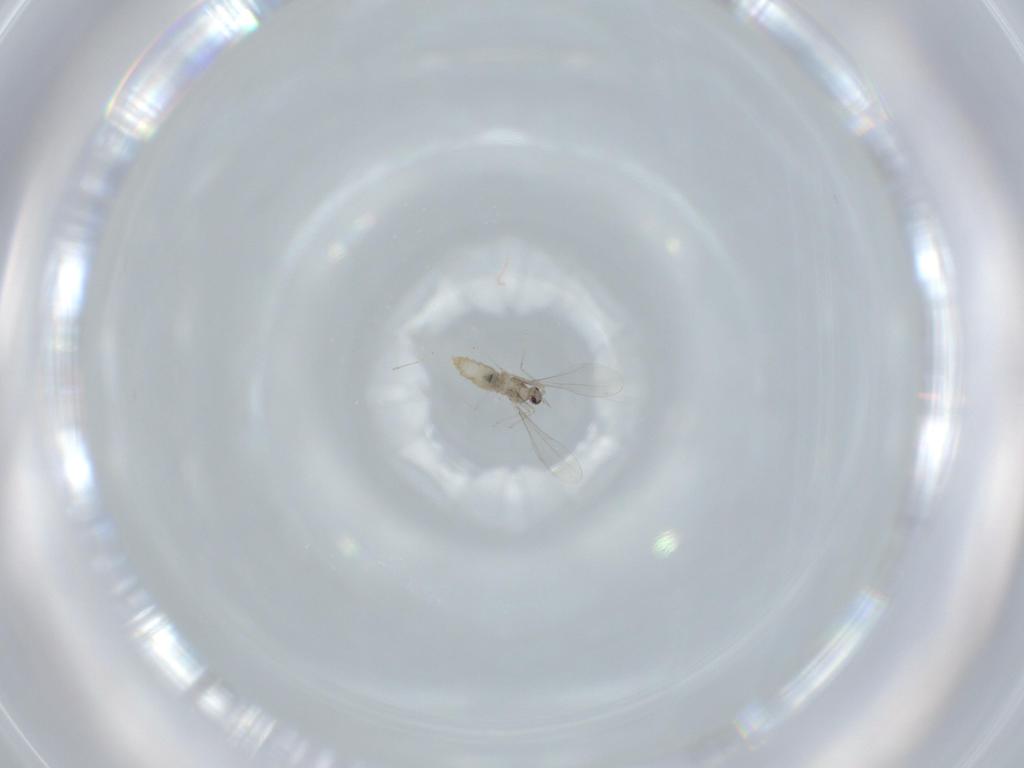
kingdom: Animalia
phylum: Arthropoda
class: Insecta
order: Diptera
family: Cecidomyiidae
